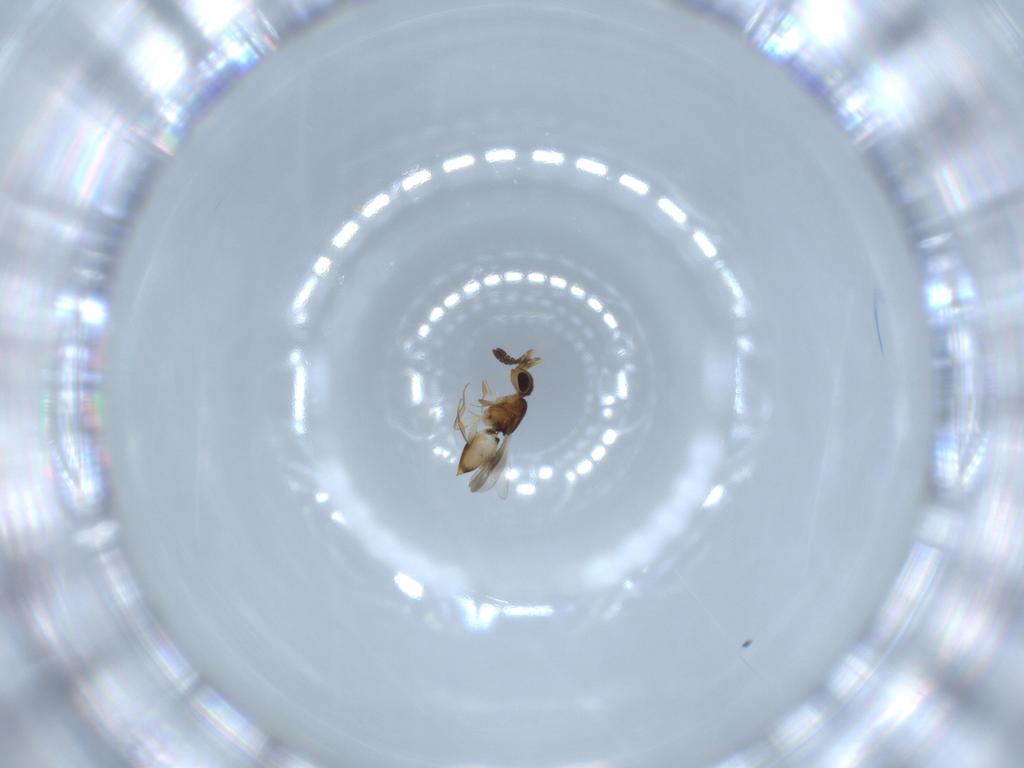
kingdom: Animalia
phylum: Arthropoda
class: Insecta
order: Hymenoptera
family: Ceraphronidae
